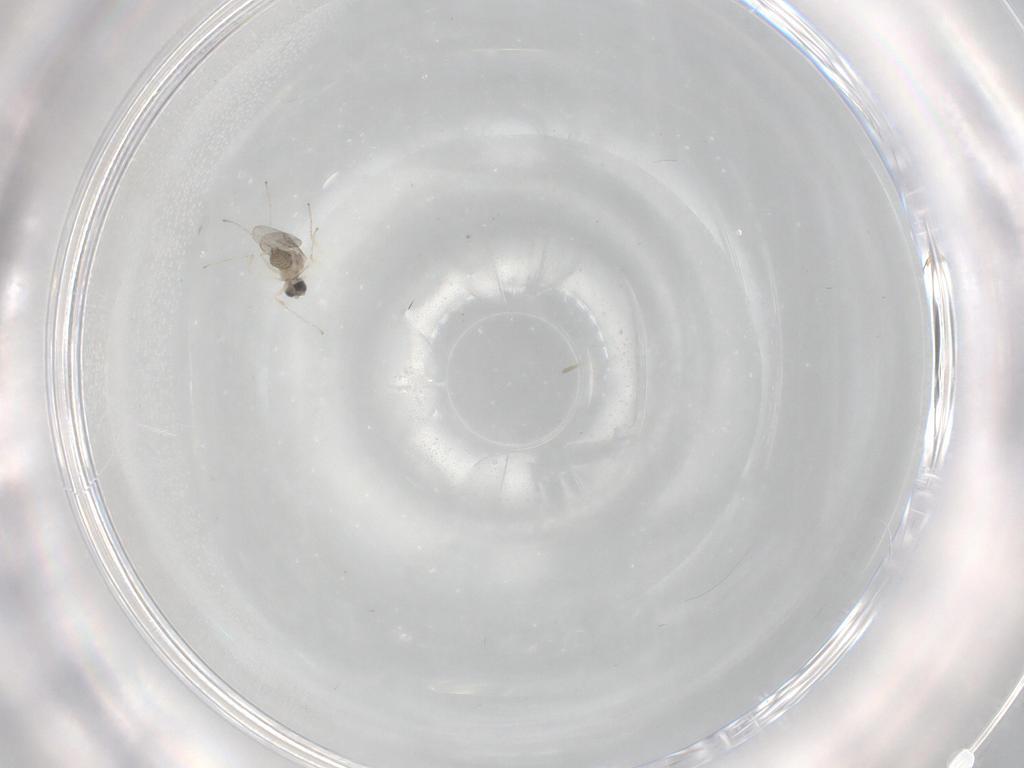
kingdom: Animalia
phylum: Arthropoda
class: Insecta
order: Diptera
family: Cecidomyiidae
